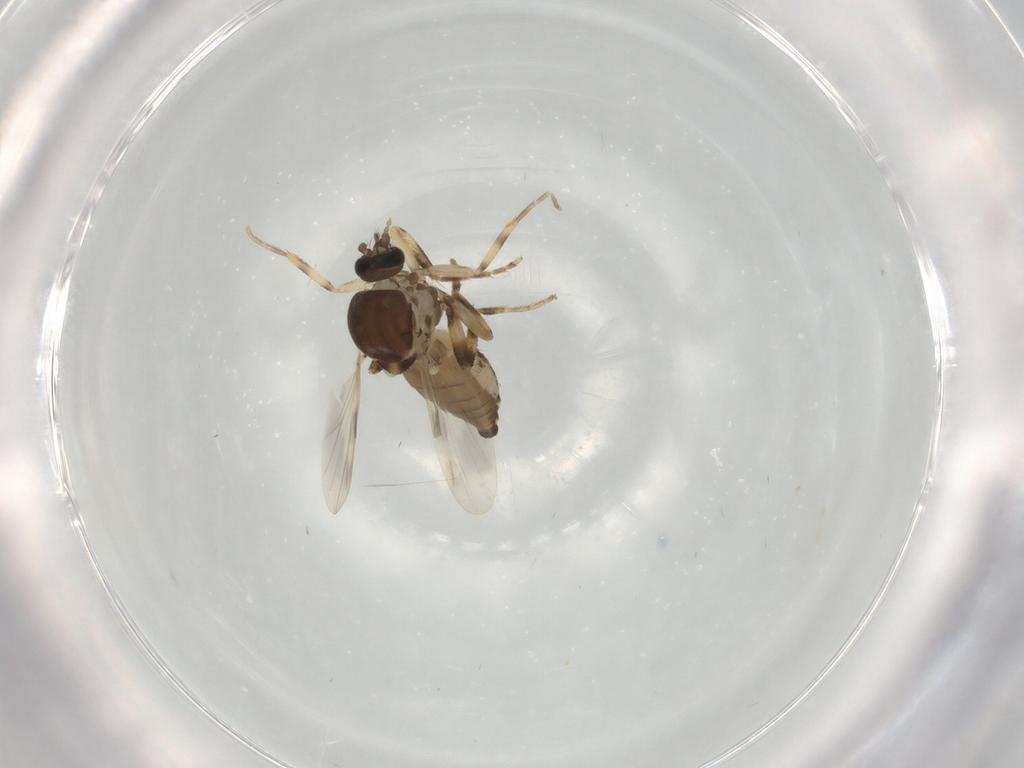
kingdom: Animalia
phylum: Arthropoda
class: Insecta
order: Diptera
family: Ceratopogonidae
